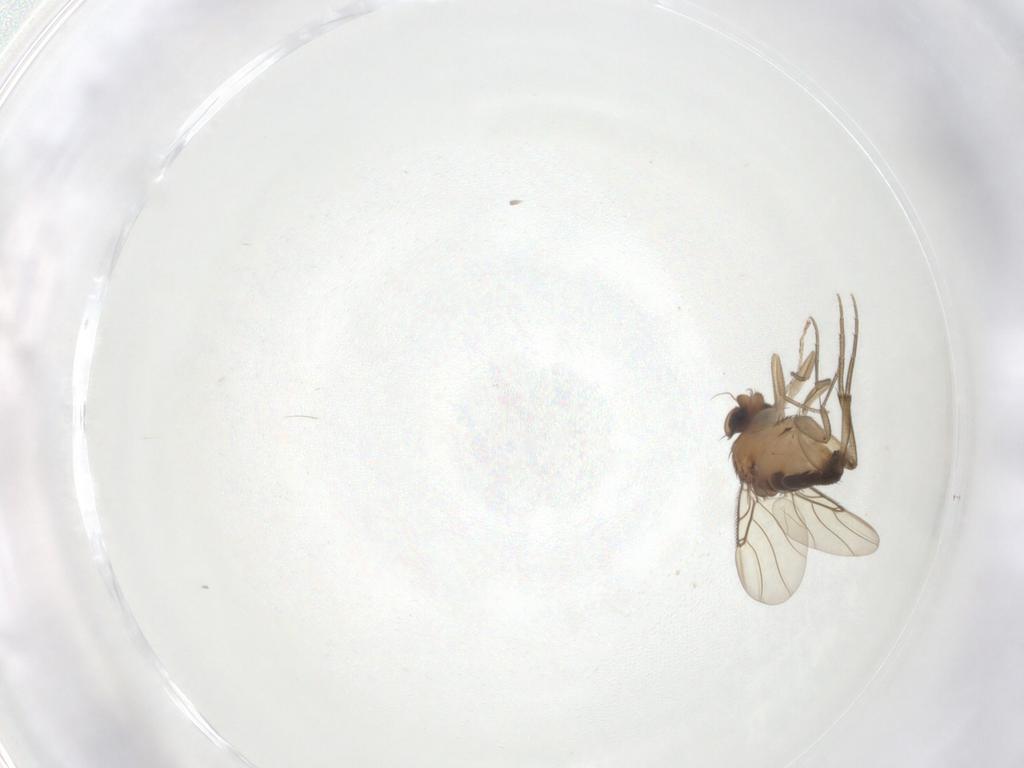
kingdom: Animalia
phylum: Arthropoda
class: Insecta
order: Diptera
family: Phoridae
